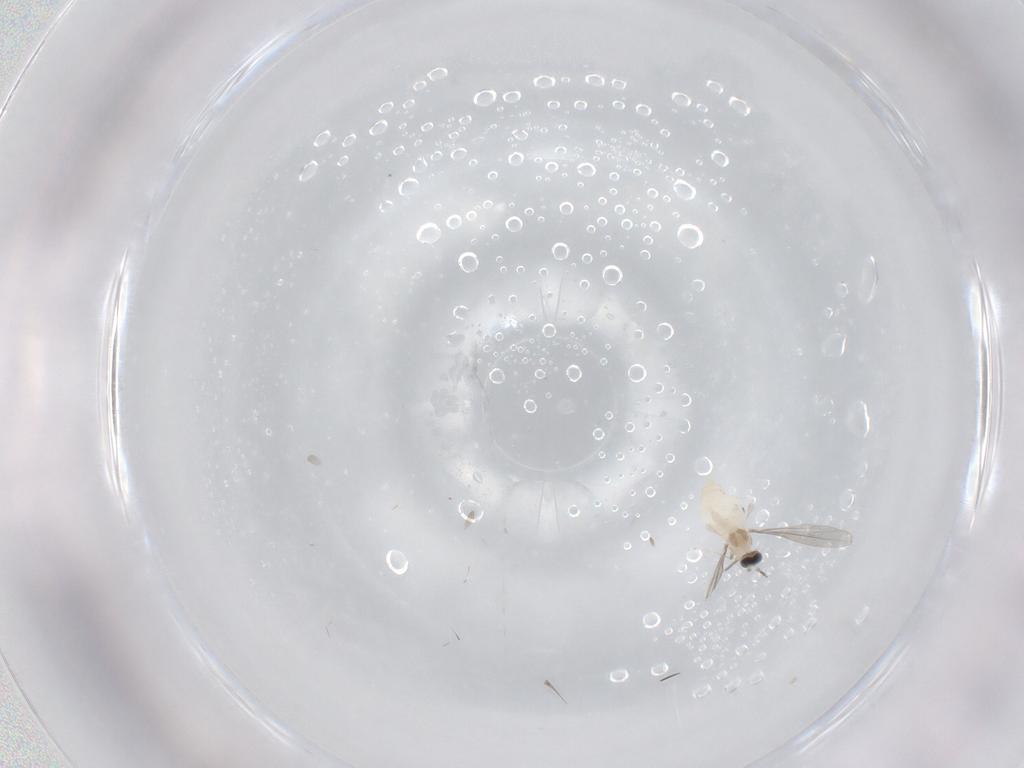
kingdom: Animalia
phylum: Arthropoda
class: Insecta
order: Diptera
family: Cecidomyiidae
